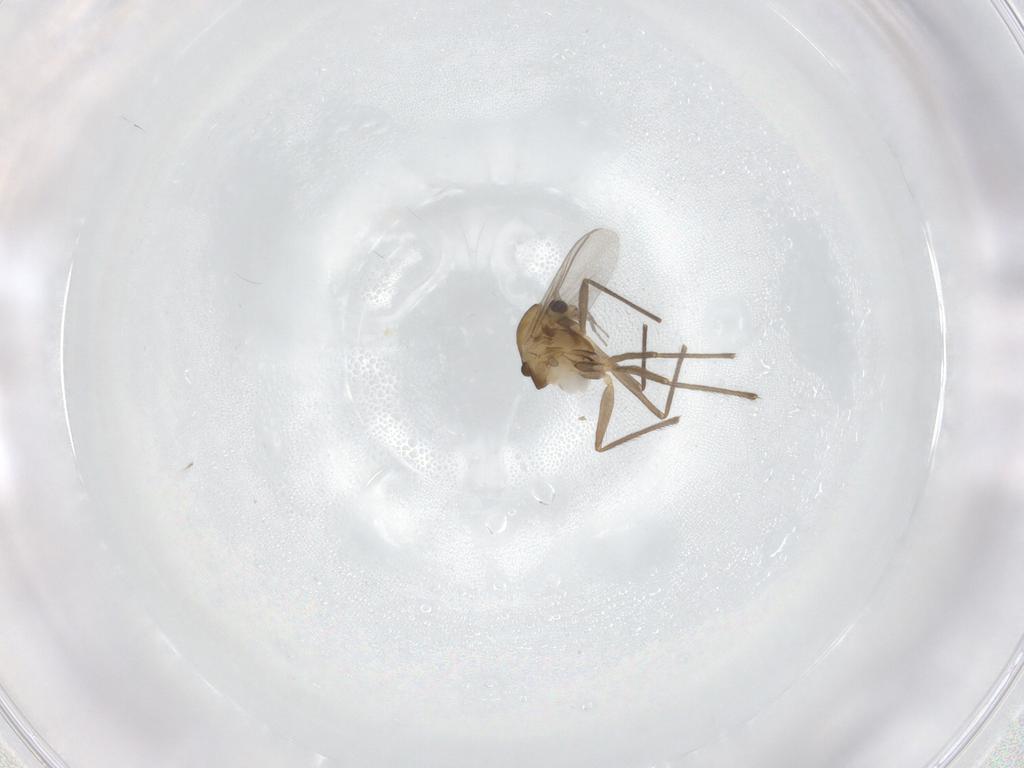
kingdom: Animalia
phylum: Arthropoda
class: Insecta
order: Diptera
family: Chironomidae
